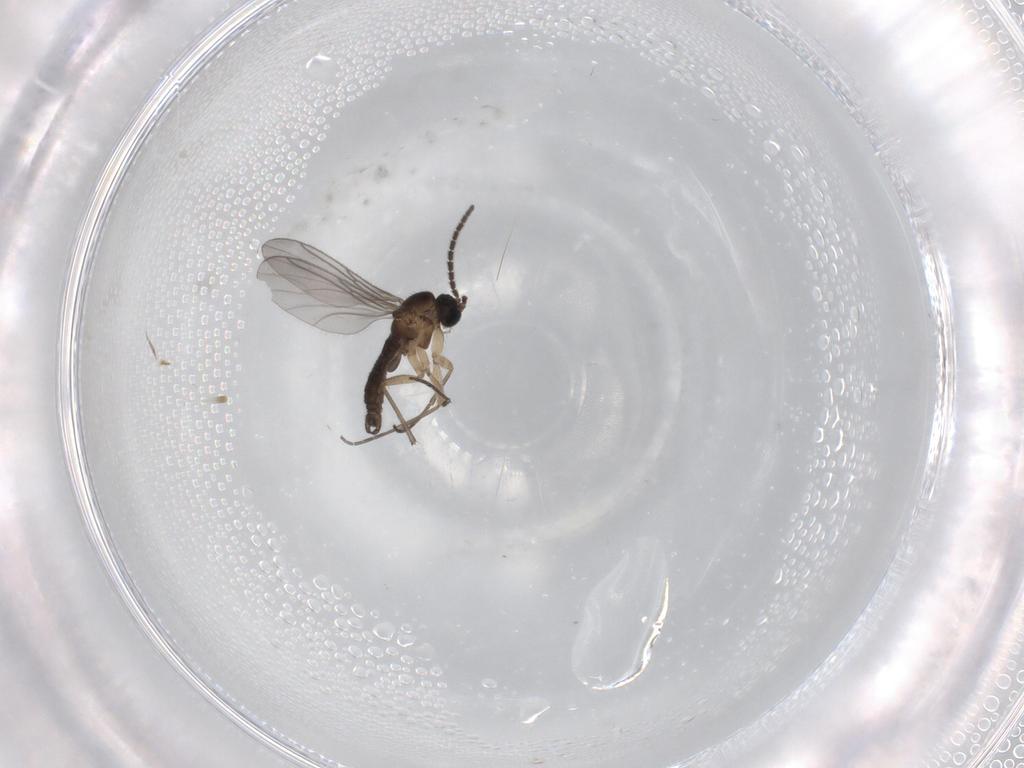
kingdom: Animalia
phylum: Arthropoda
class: Insecta
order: Diptera
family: Sciaridae
